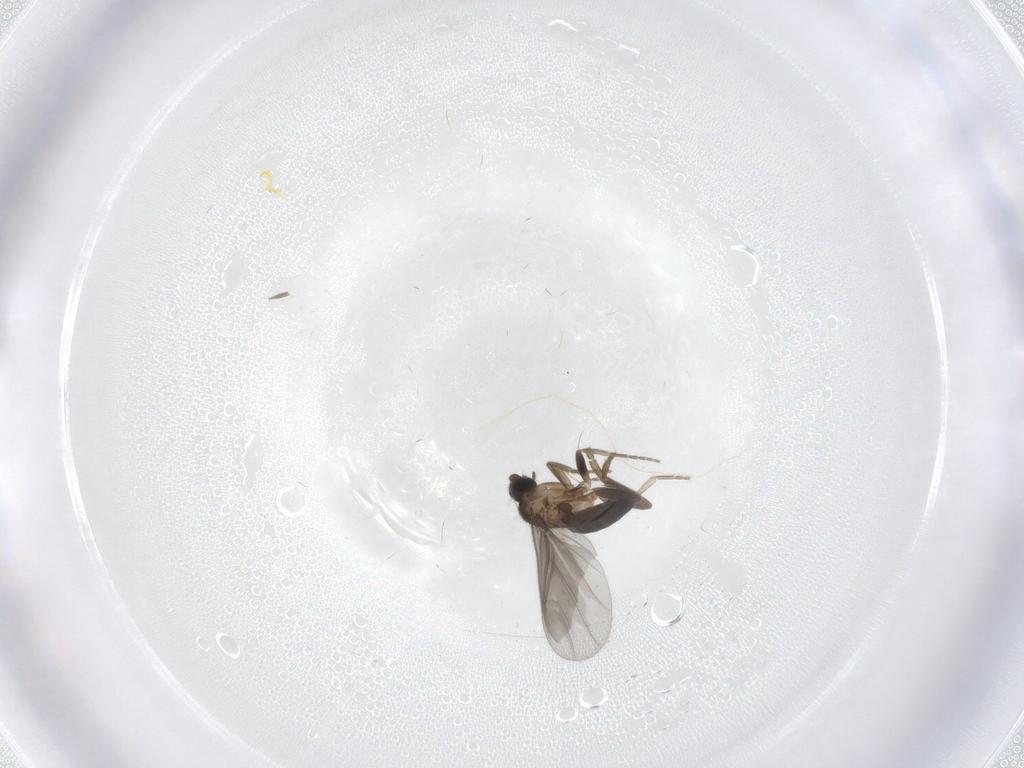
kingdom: Animalia
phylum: Arthropoda
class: Insecta
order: Diptera
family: Phoridae
